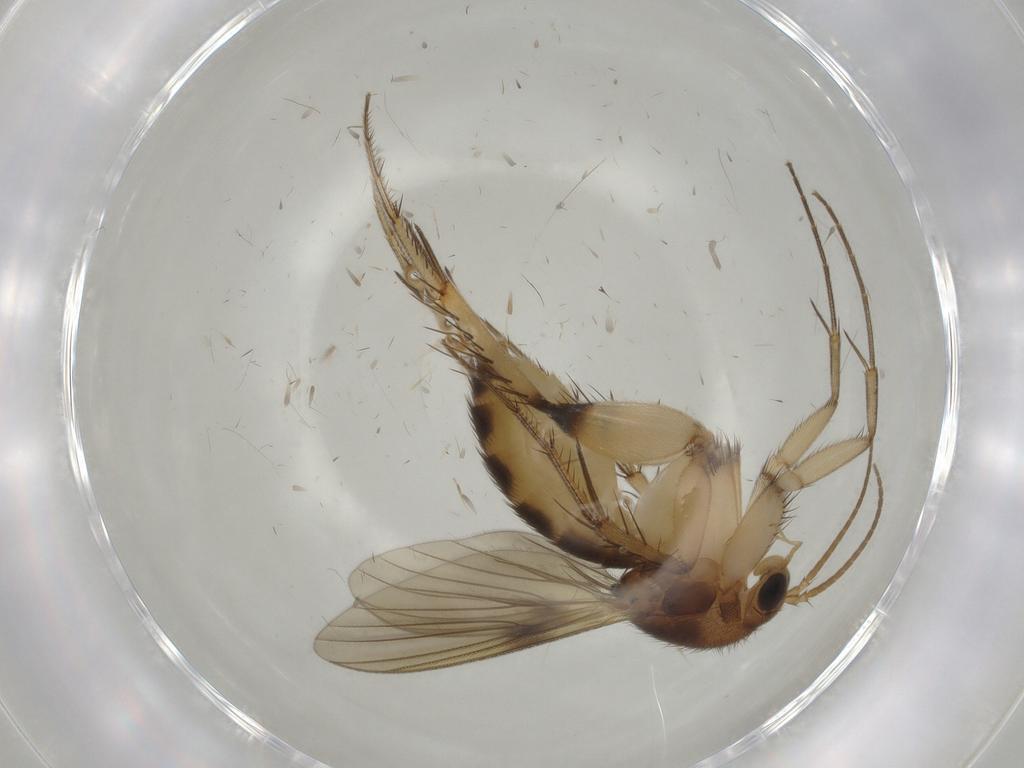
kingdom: Animalia
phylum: Arthropoda
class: Insecta
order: Diptera
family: Mycetophilidae
